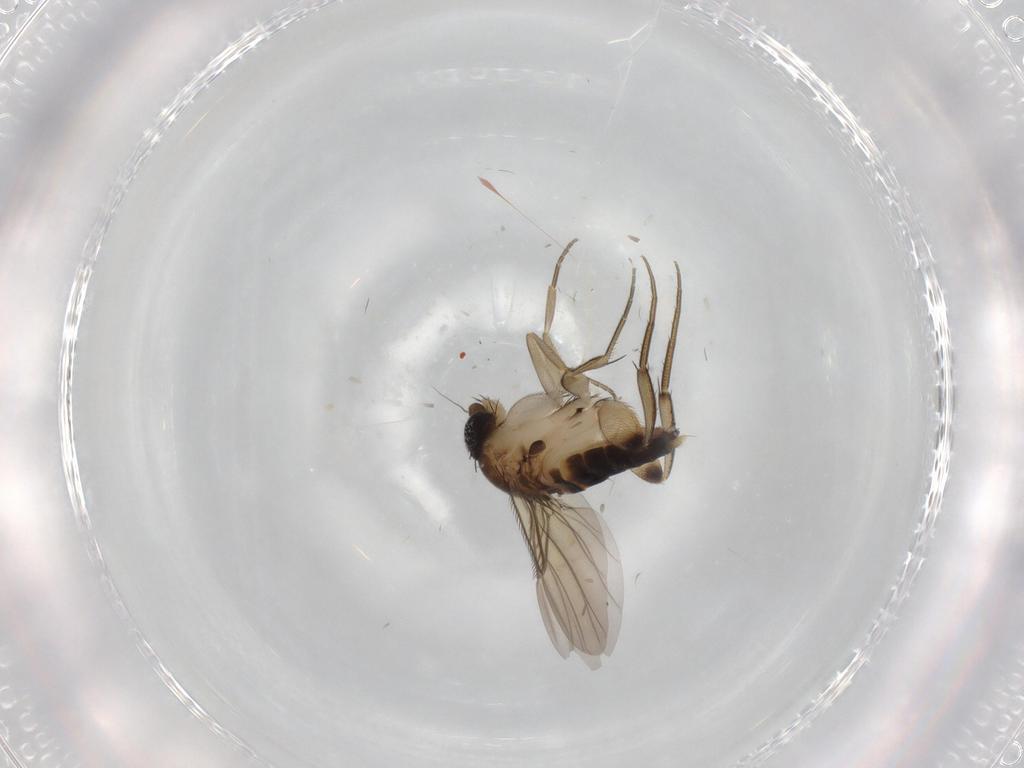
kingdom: Animalia
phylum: Arthropoda
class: Insecta
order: Diptera
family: Phoridae
